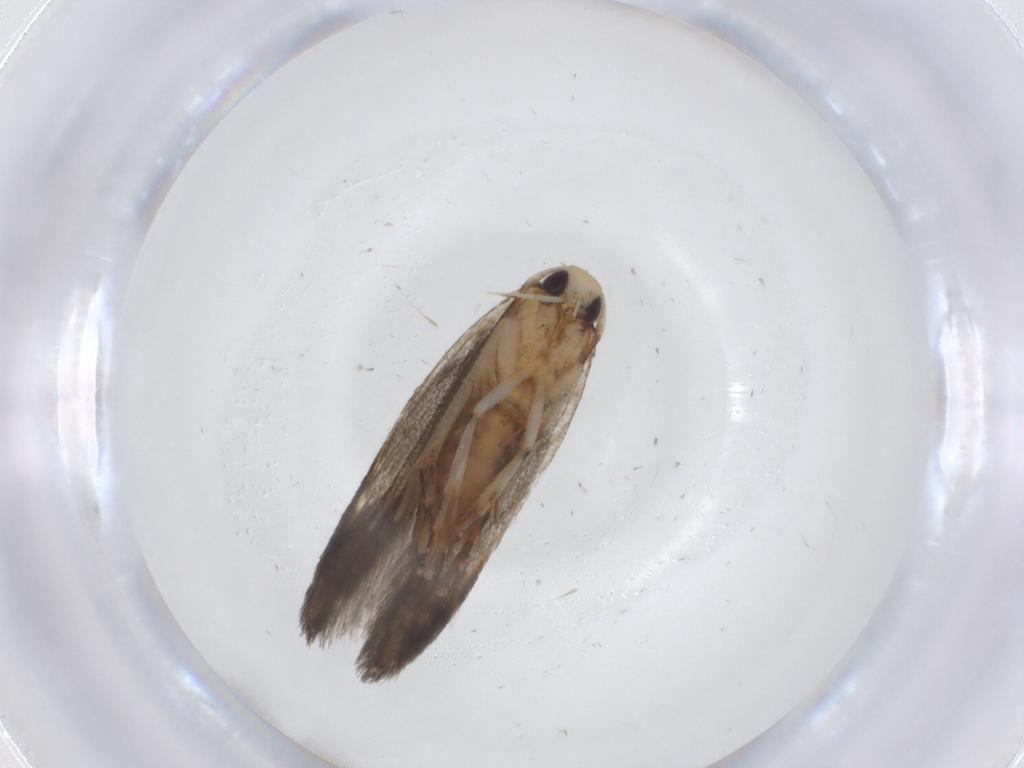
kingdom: Animalia
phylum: Arthropoda
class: Insecta
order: Lepidoptera
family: Cosmopterigidae
